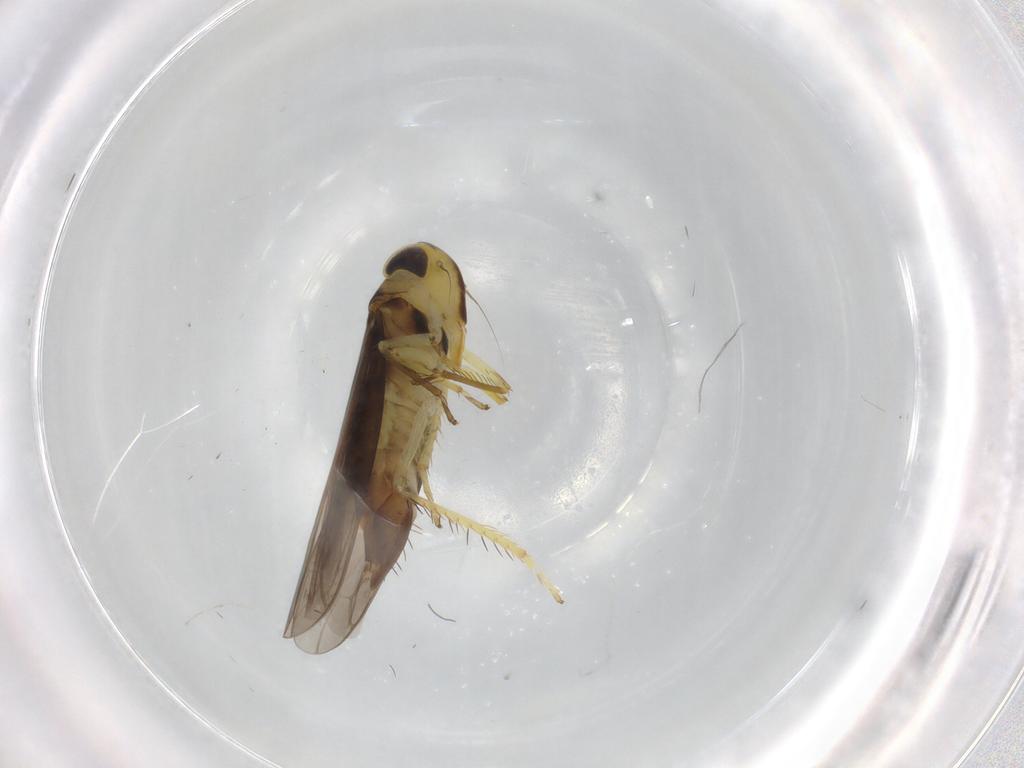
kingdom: Animalia
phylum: Arthropoda
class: Insecta
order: Hemiptera
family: Cicadellidae
